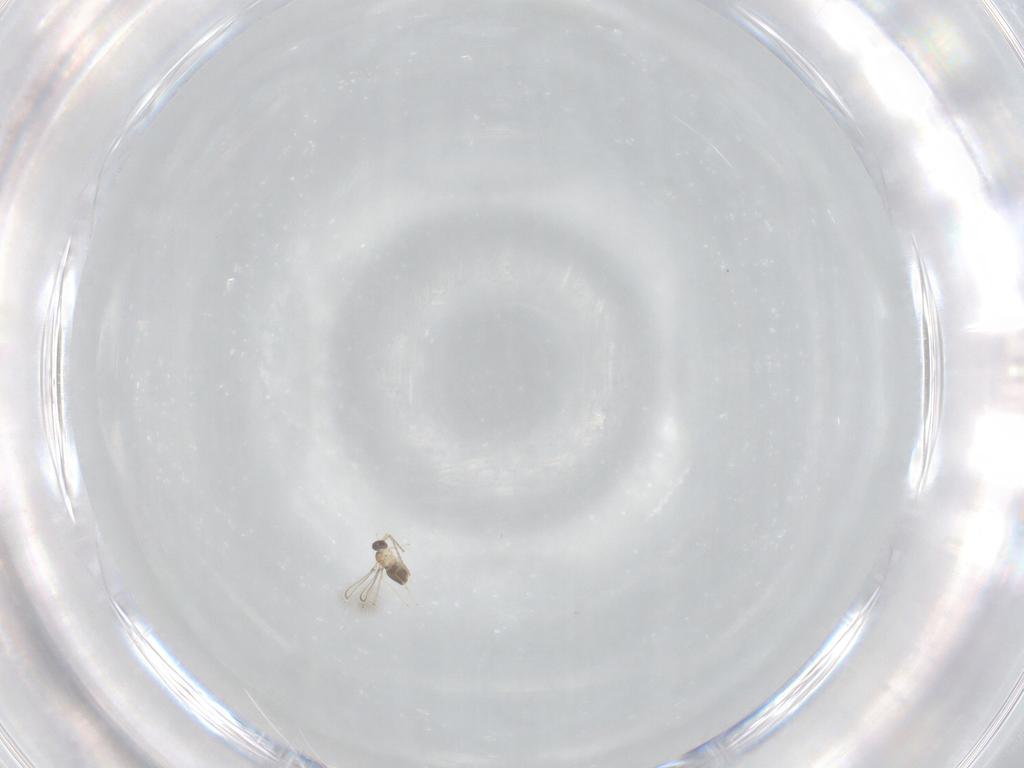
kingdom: Animalia
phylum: Arthropoda
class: Insecta
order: Hymenoptera
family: Mymaridae
